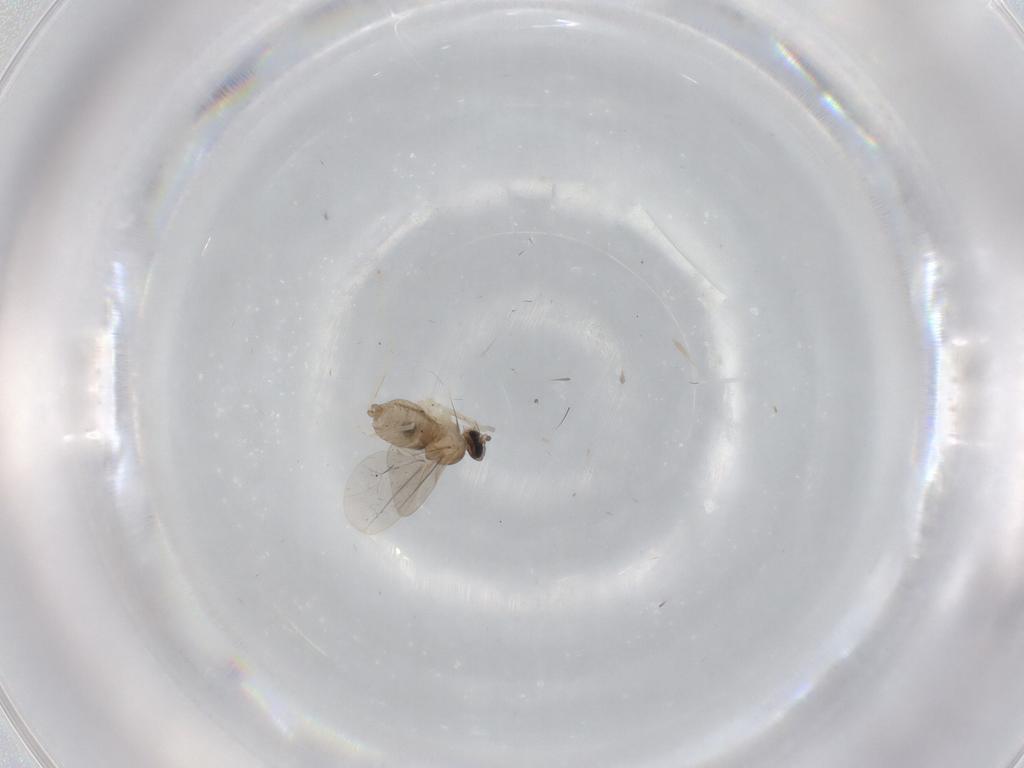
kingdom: Animalia
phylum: Arthropoda
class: Insecta
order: Diptera
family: Cecidomyiidae
